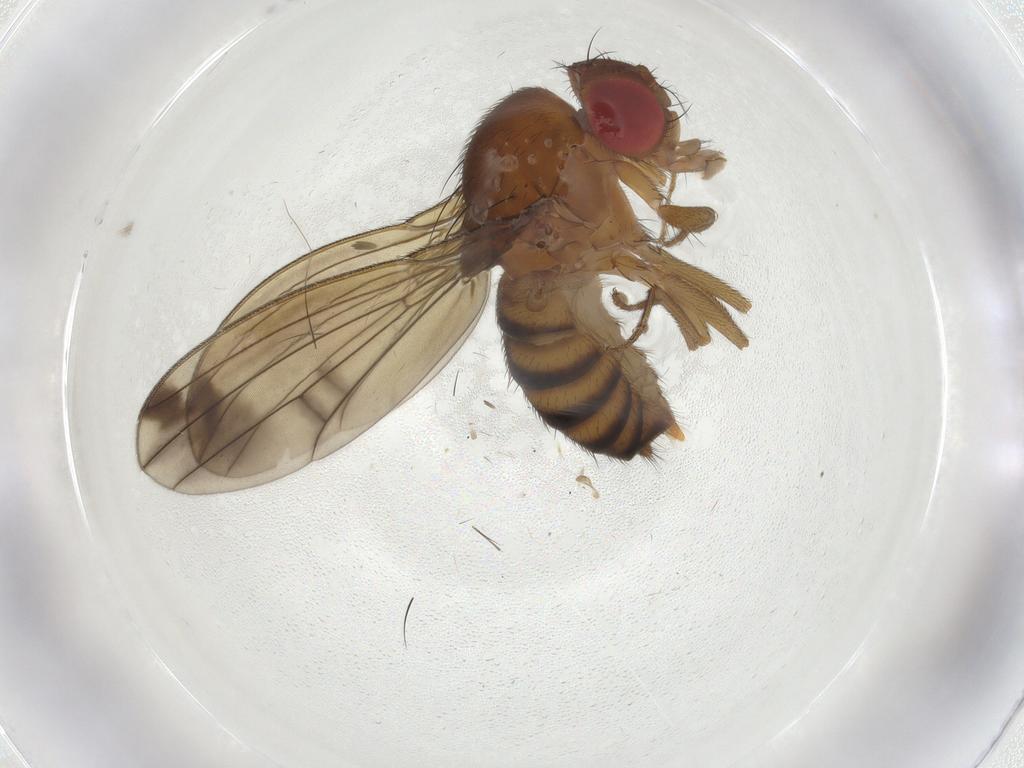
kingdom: Animalia
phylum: Arthropoda
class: Insecta
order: Diptera
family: Drosophilidae
